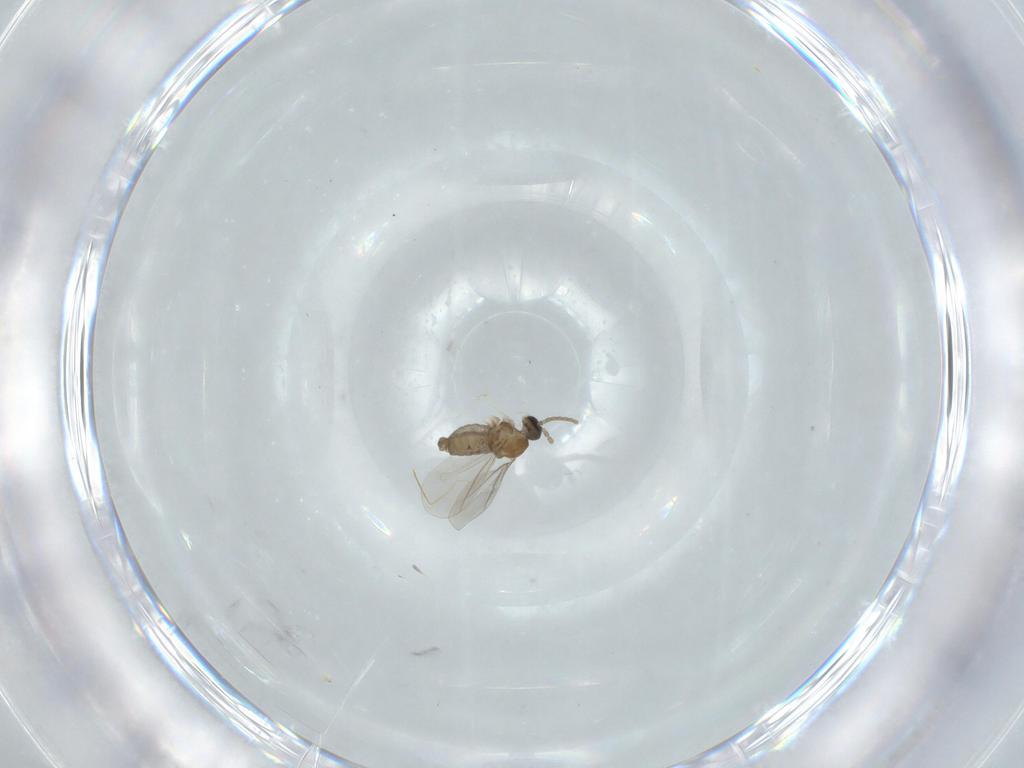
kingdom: Animalia
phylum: Arthropoda
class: Insecta
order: Diptera
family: Cecidomyiidae
